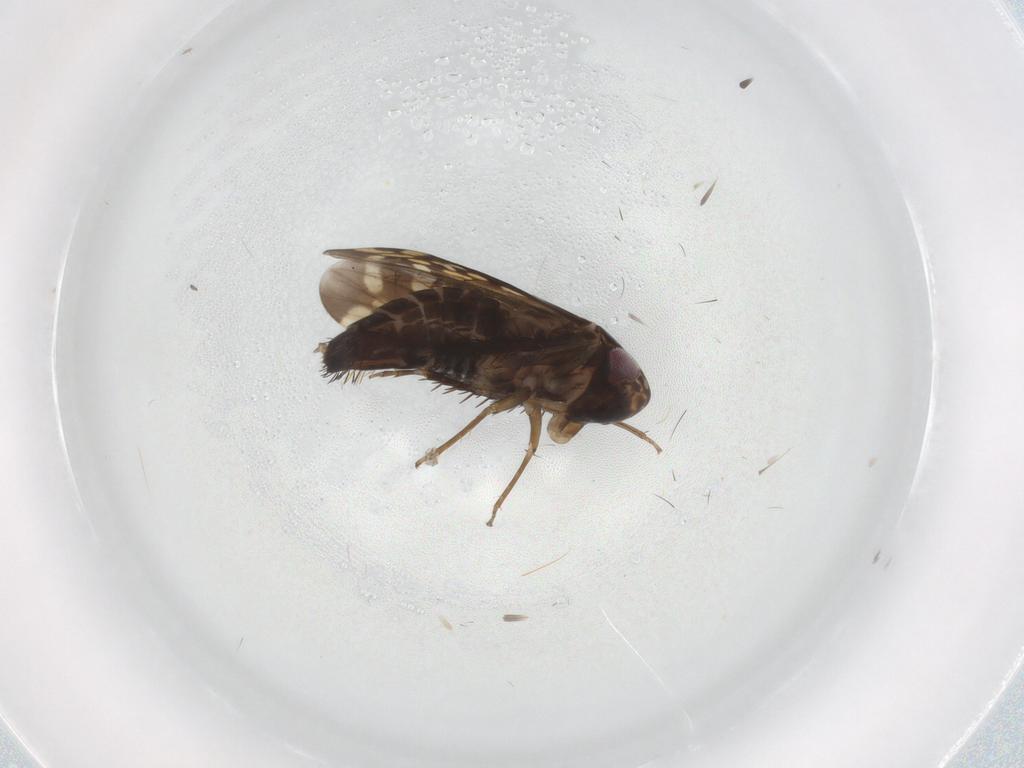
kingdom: Animalia
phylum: Arthropoda
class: Insecta
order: Hemiptera
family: Cicadellidae
